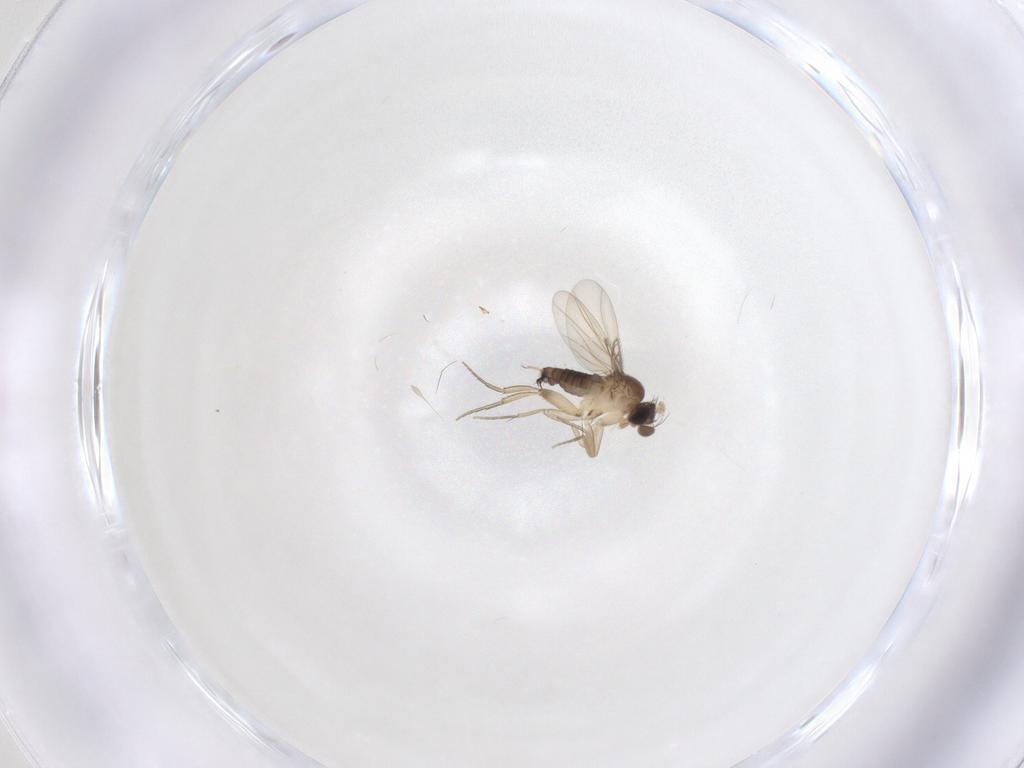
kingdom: Animalia
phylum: Arthropoda
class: Insecta
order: Diptera
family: Phoridae
